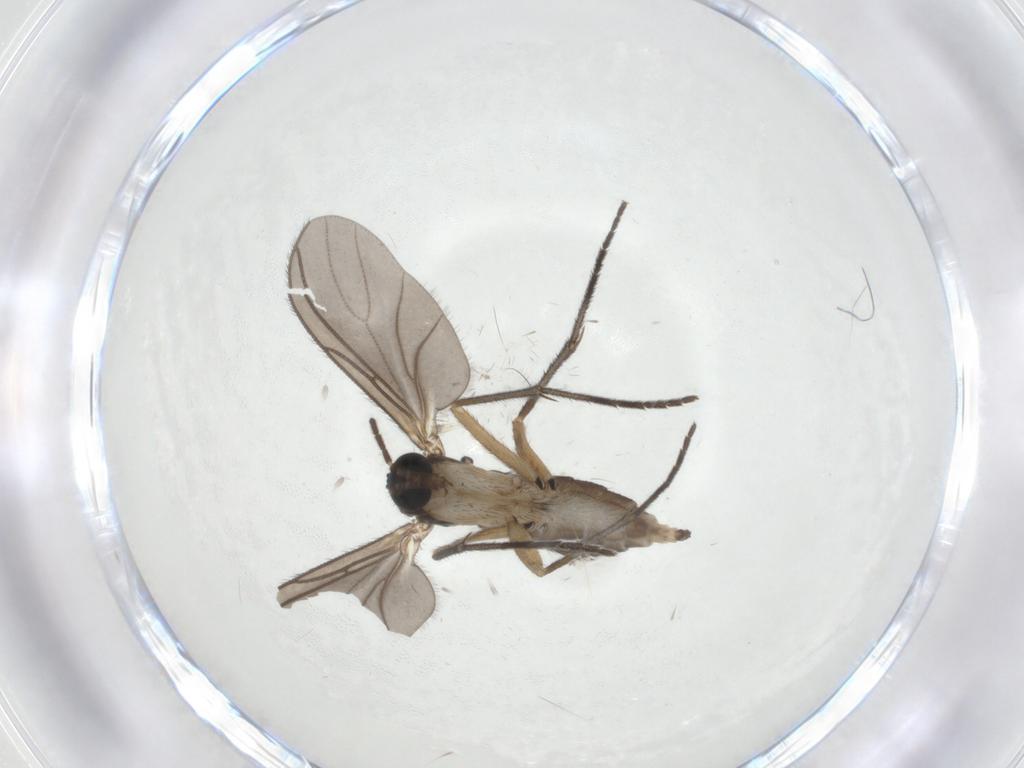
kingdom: Animalia
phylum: Arthropoda
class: Insecta
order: Diptera
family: Sciaridae
